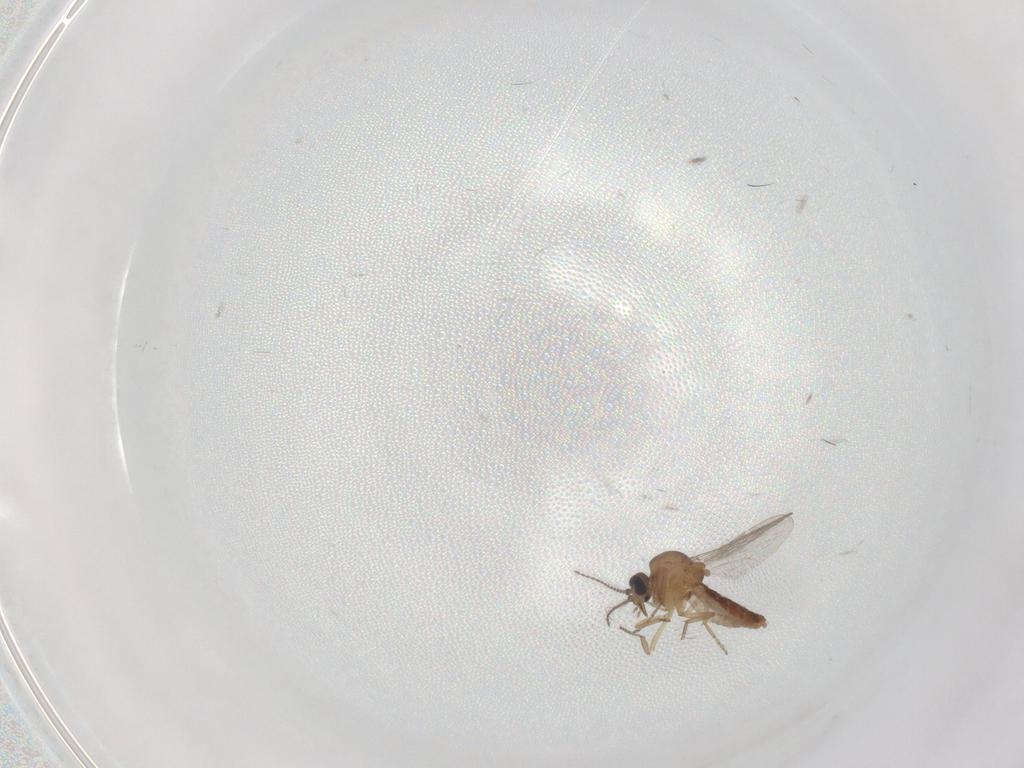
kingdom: Animalia
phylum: Arthropoda
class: Insecta
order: Diptera
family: Ceratopogonidae
